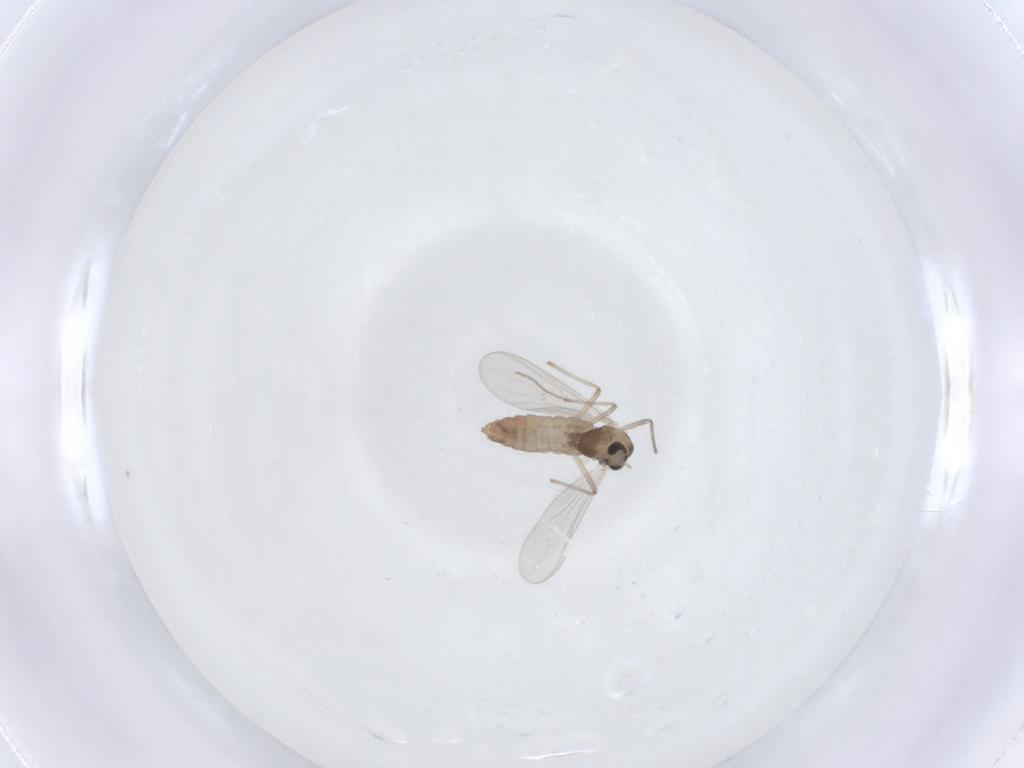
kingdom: Animalia
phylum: Arthropoda
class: Insecta
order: Diptera
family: Chironomidae
